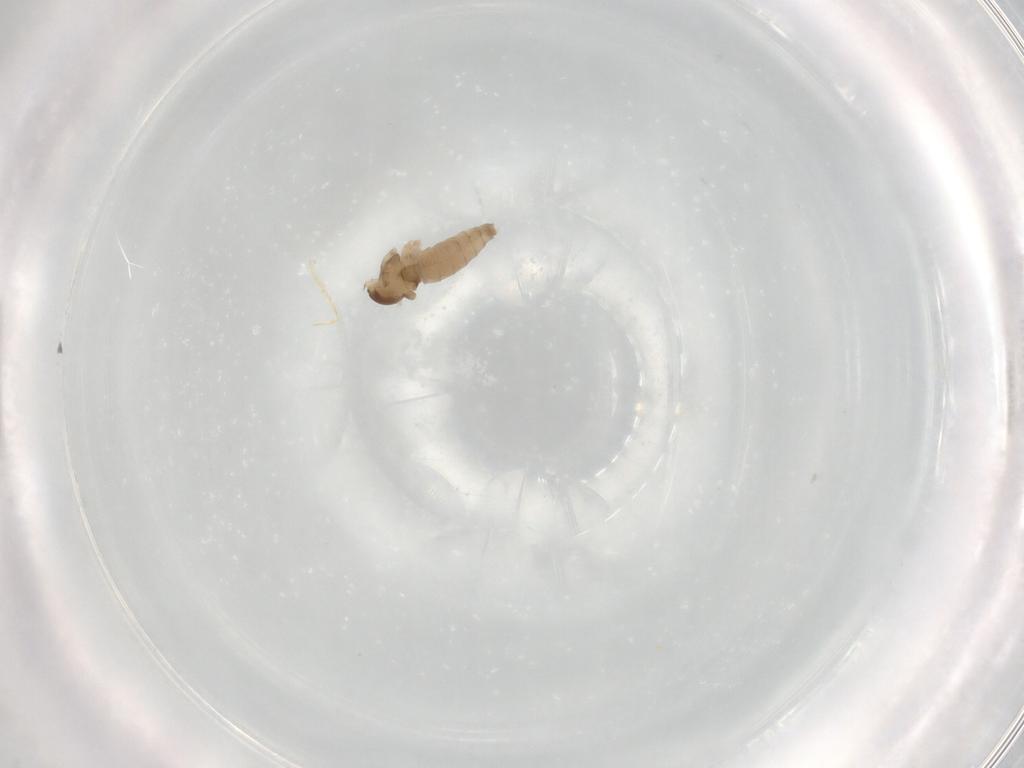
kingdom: Animalia
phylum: Arthropoda
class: Insecta
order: Diptera
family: Cecidomyiidae
